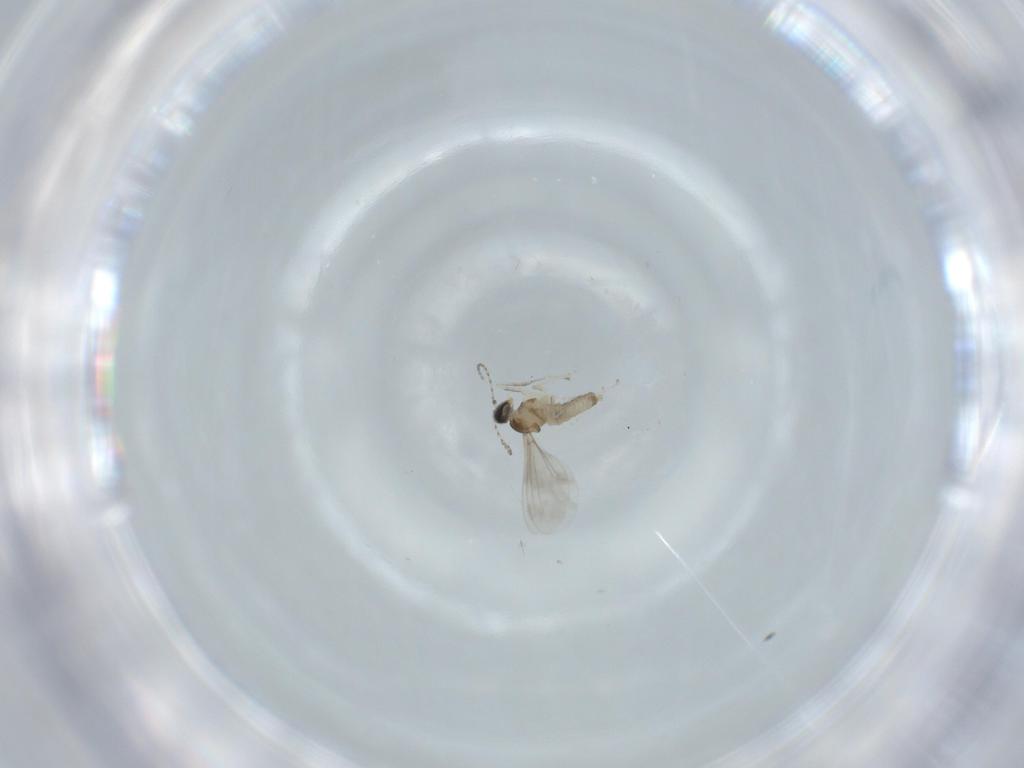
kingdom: Animalia
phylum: Arthropoda
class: Insecta
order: Diptera
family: Cecidomyiidae
